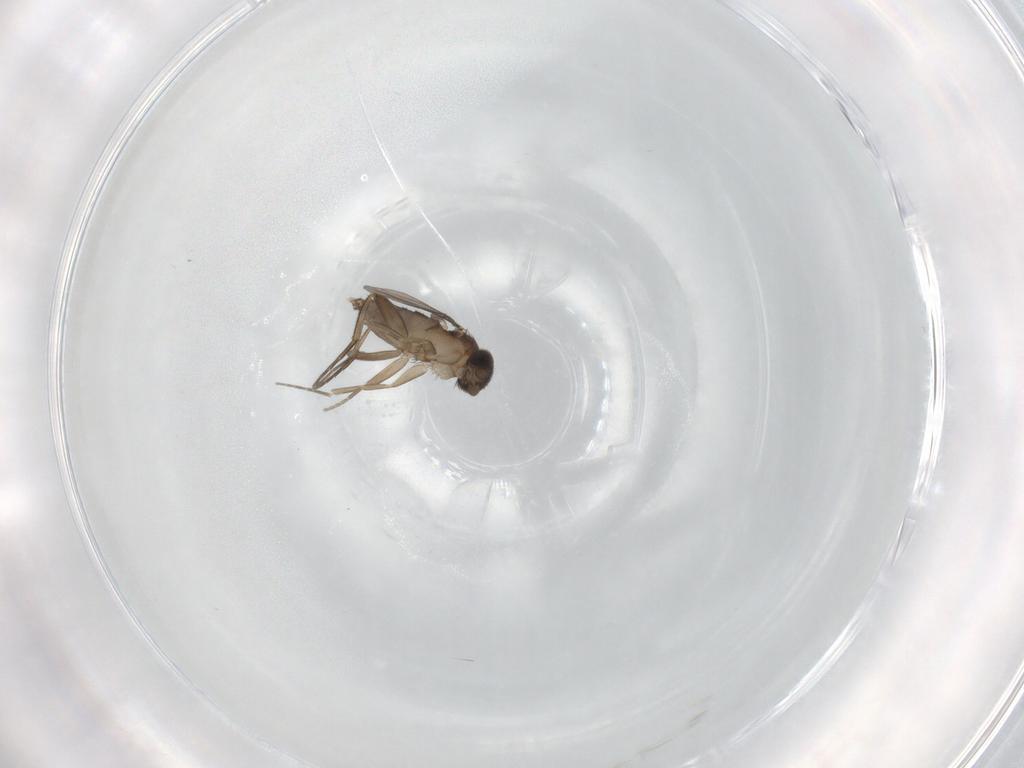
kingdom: Animalia
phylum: Arthropoda
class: Insecta
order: Diptera
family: Phoridae
